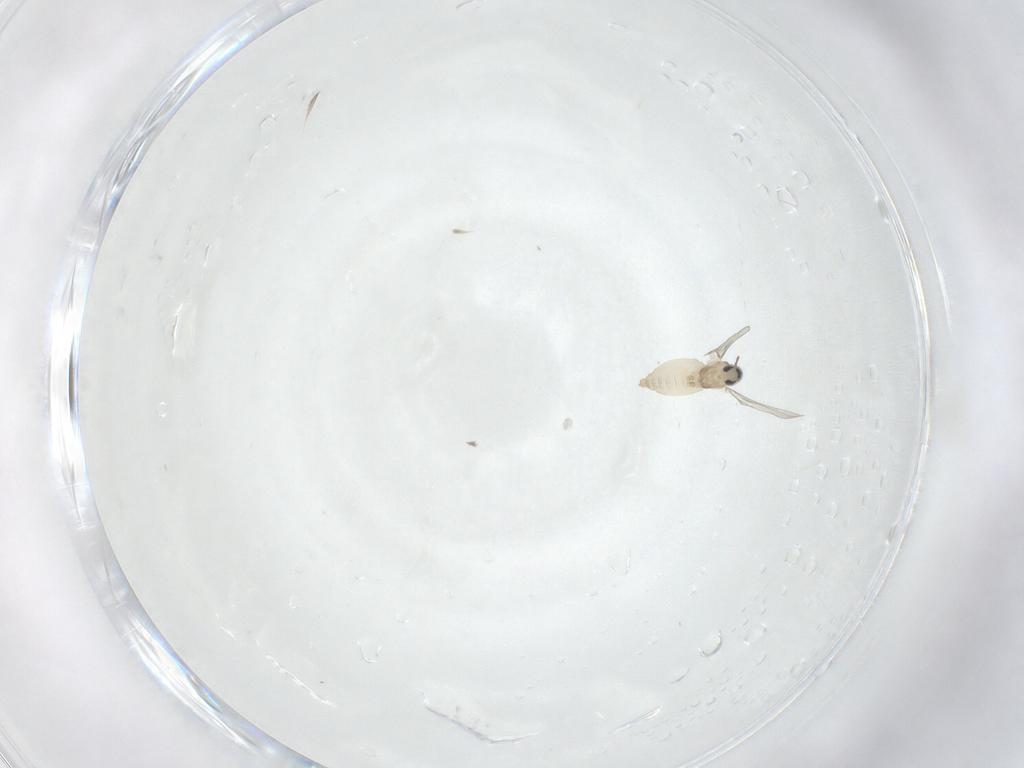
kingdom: Animalia
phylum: Arthropoda
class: Insecta
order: Diptera
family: Cecidomyiidae
